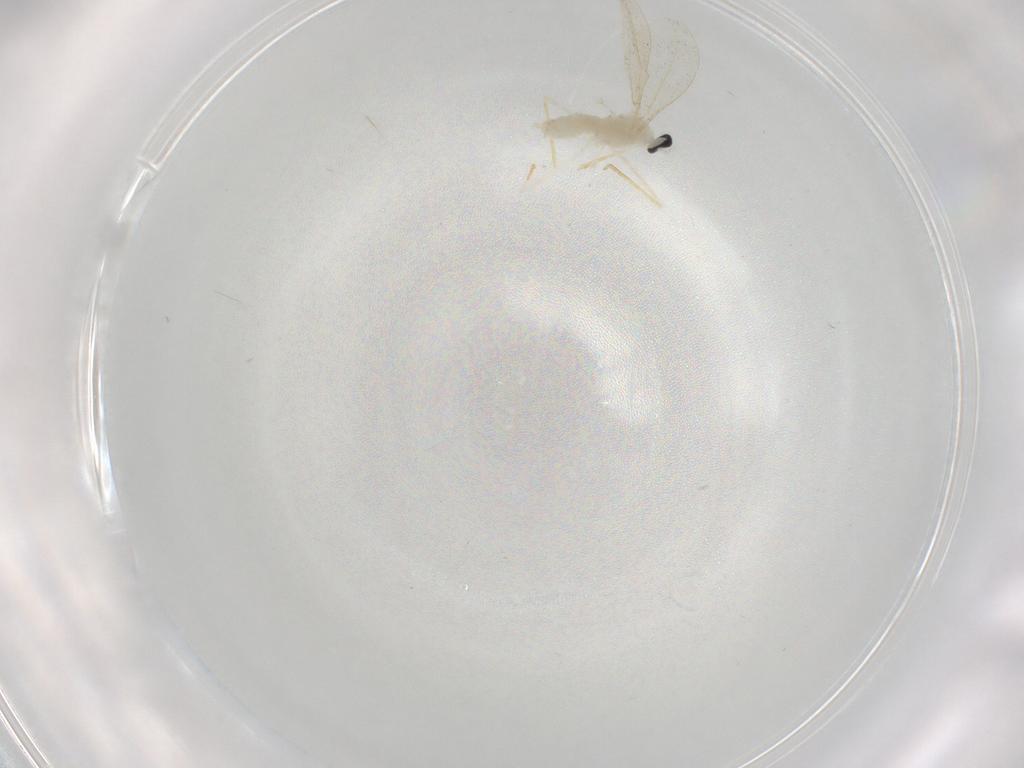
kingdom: Animalia
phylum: Arthropoda
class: Insecta
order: Diptera
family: Cecidomyiidae
